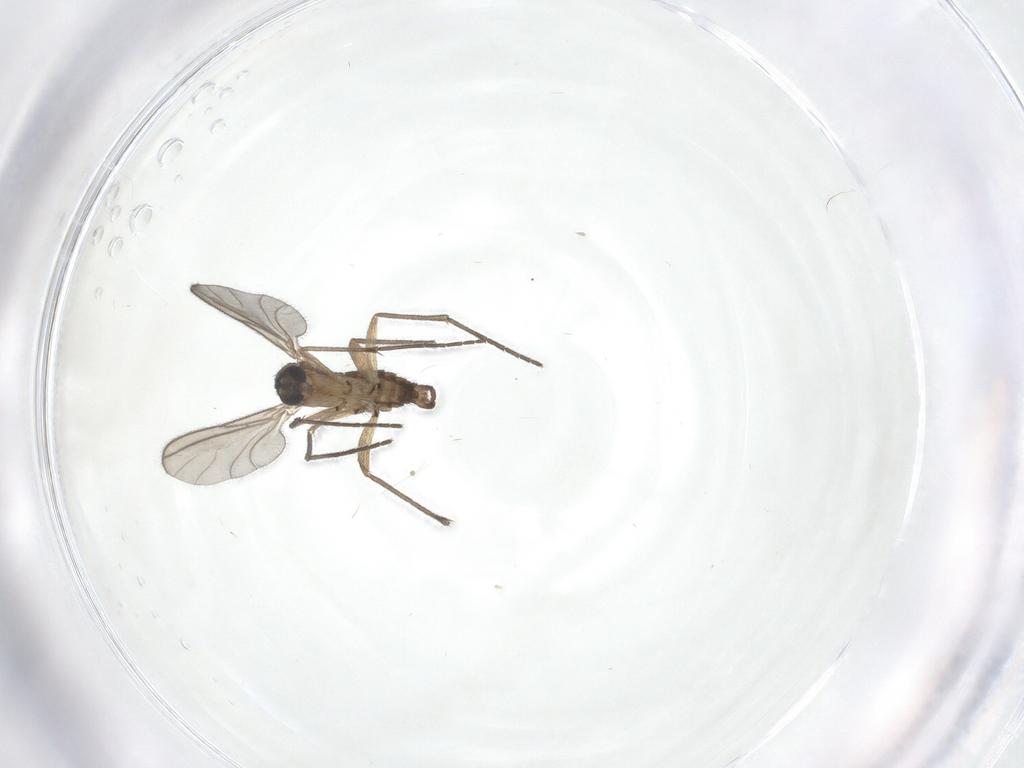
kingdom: Animalia
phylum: Arthropoda
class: Insecta
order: Diptera
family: Sciaridae
